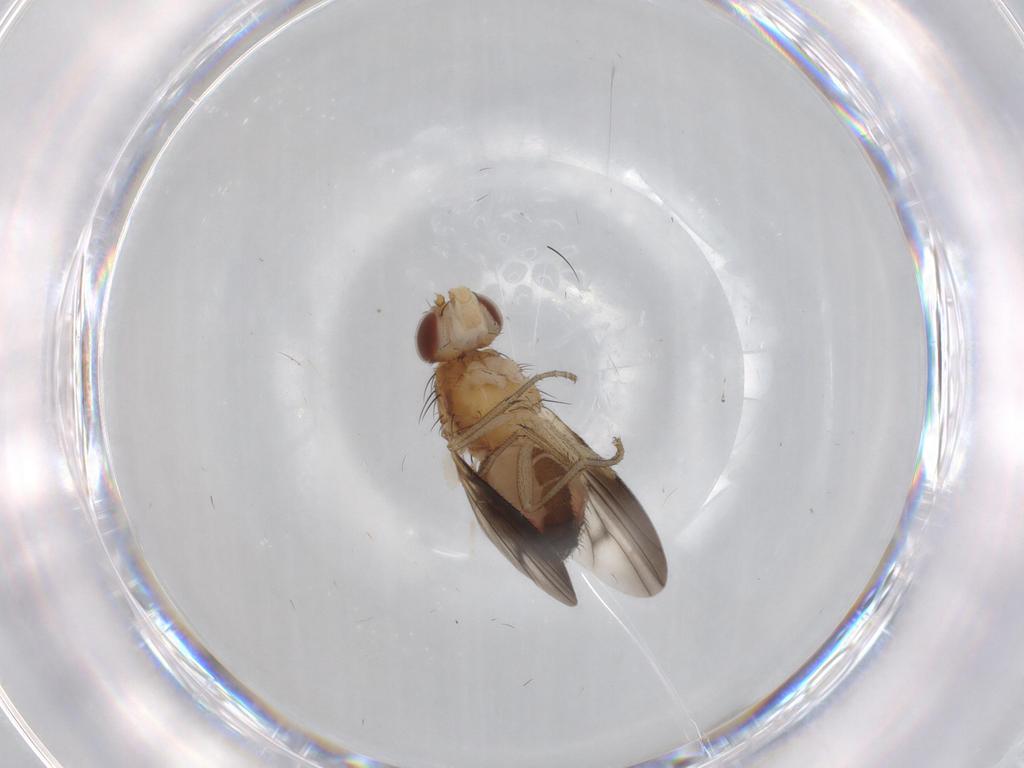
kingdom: Animalia
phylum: Arthropoda
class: Insecta
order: Diptera
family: Heleomyzidae
